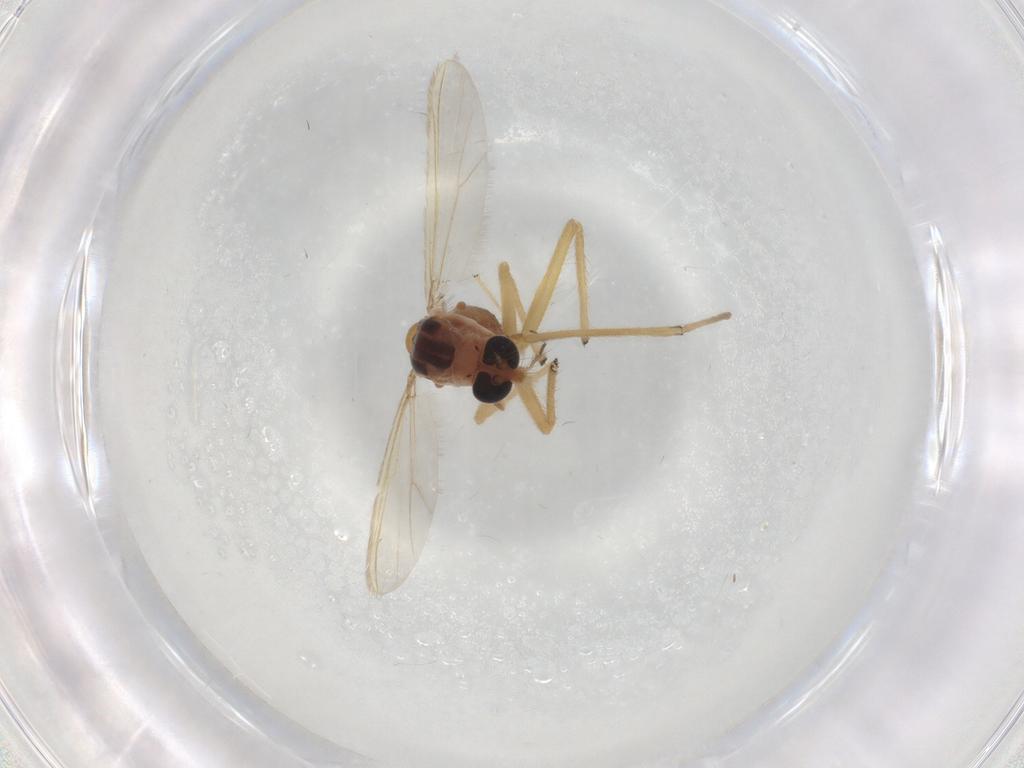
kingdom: Animalia
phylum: Arthropoda
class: Insecta
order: Diptera
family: Chironomidae
